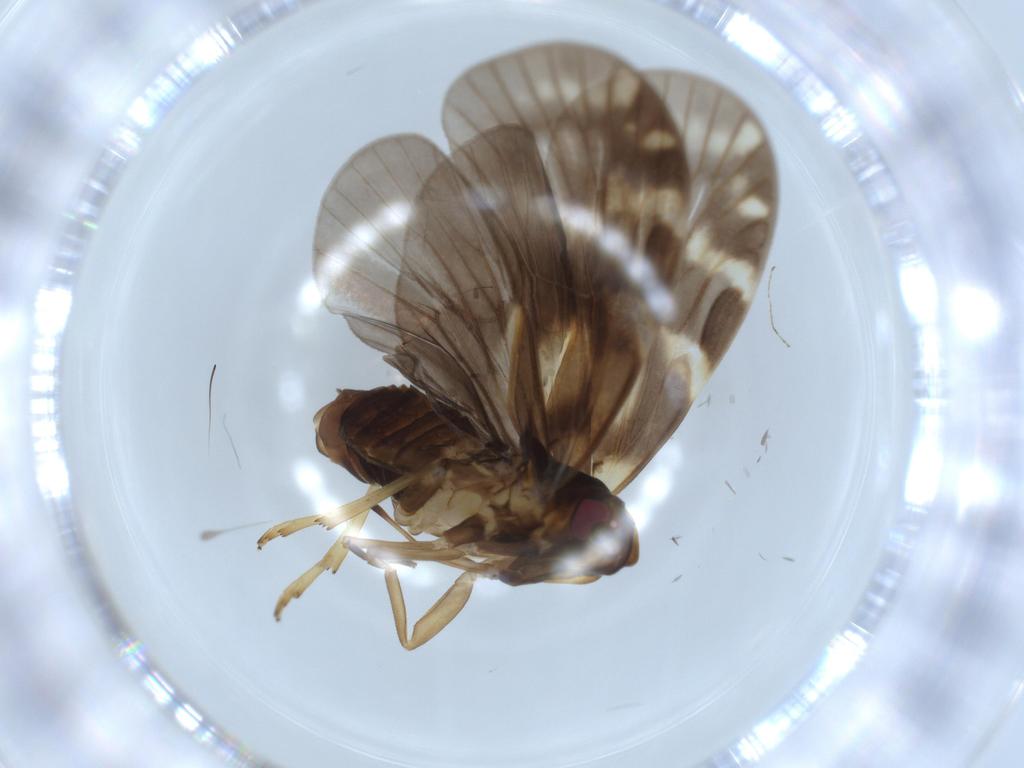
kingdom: Animalia
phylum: Arthropoda
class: Insecta
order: Hemiptera
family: Cixiidae
